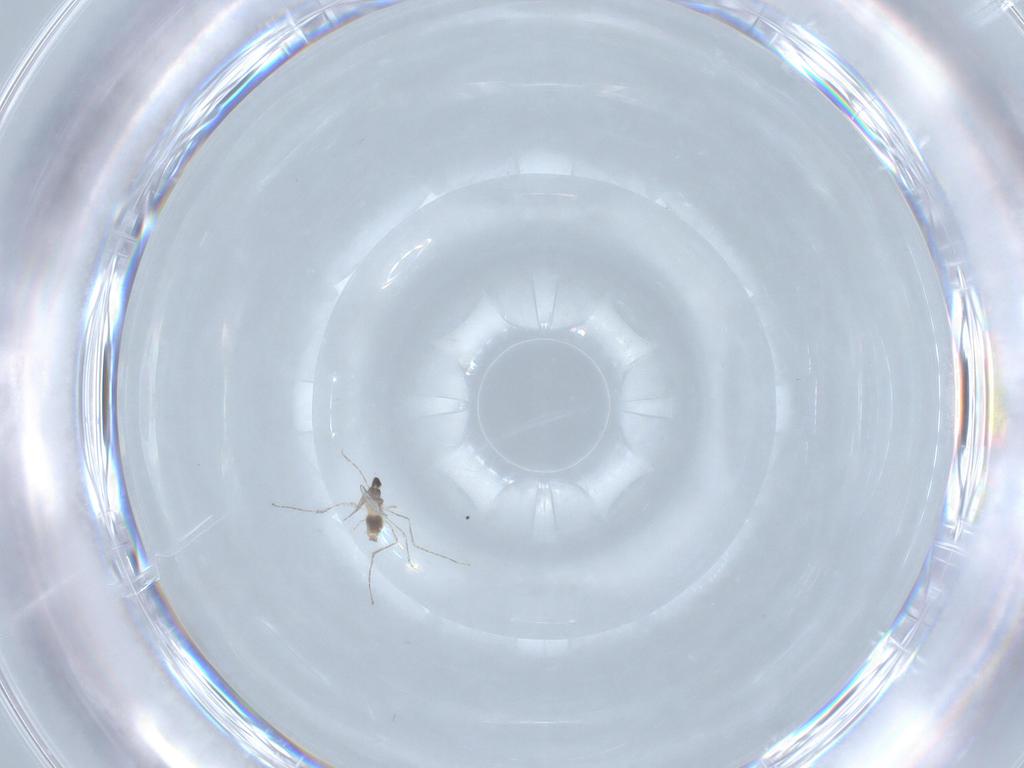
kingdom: Animalia
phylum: Arthropoda
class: Insecta
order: Diptera
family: Cecidomyiidae
